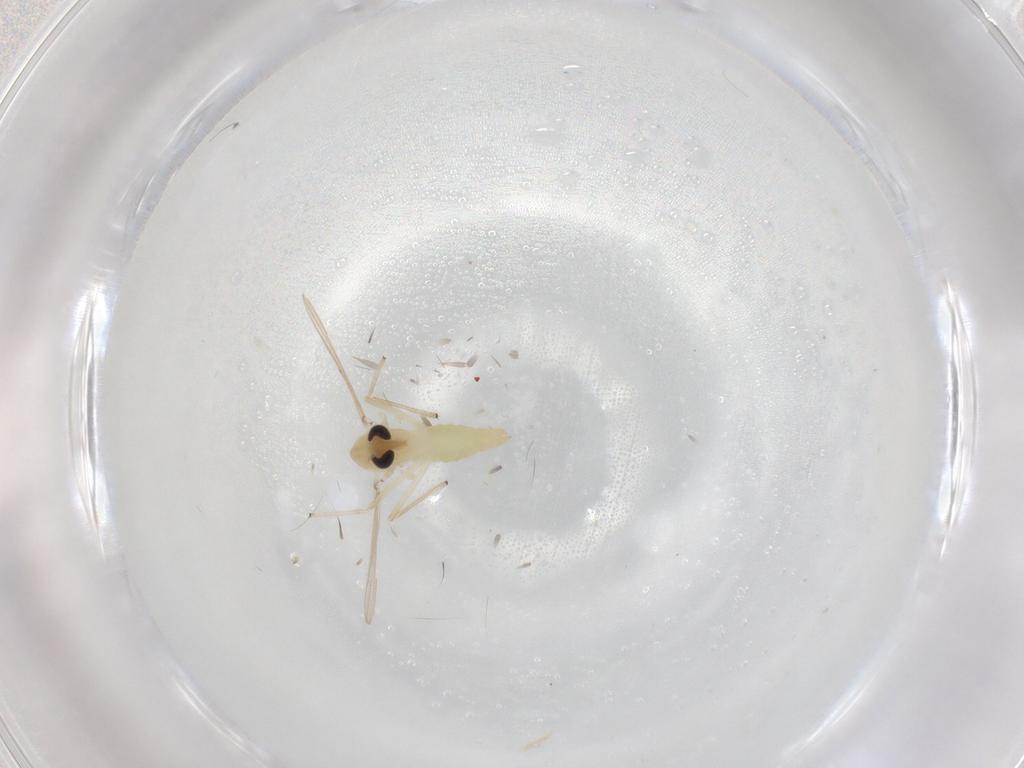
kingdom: Animalia
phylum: Arthropoda
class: Insecta
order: Diptera
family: Chironomidae
